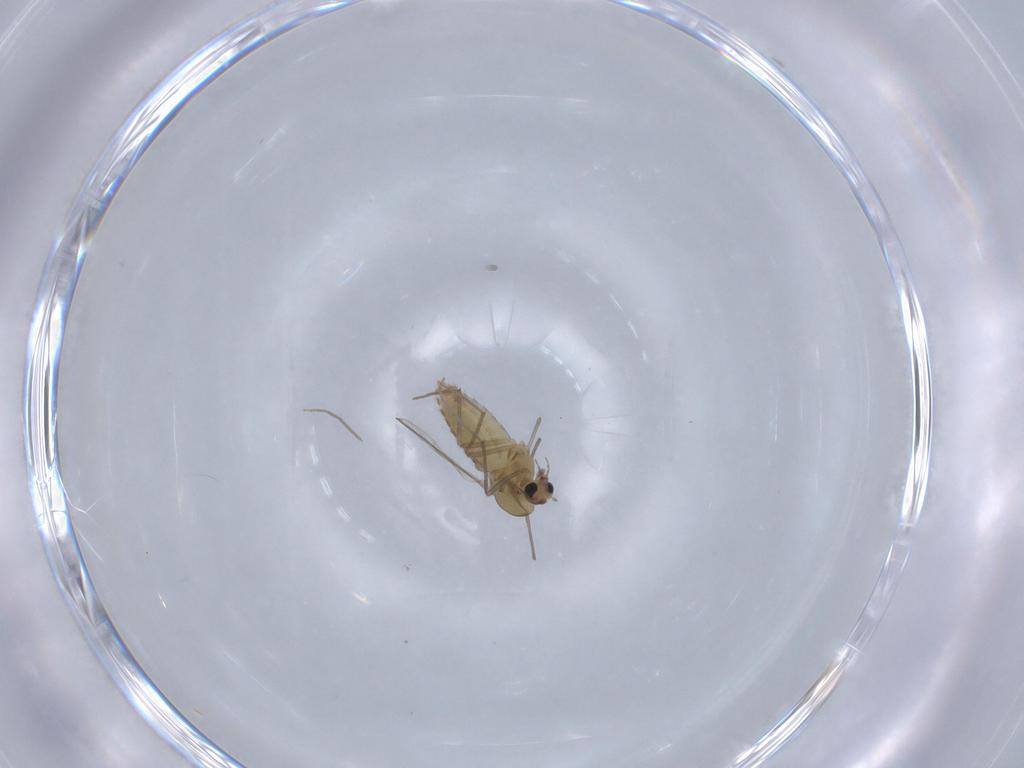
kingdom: Animalia
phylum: Arthropoda
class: Insecta
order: Diptera
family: Chironomidae
